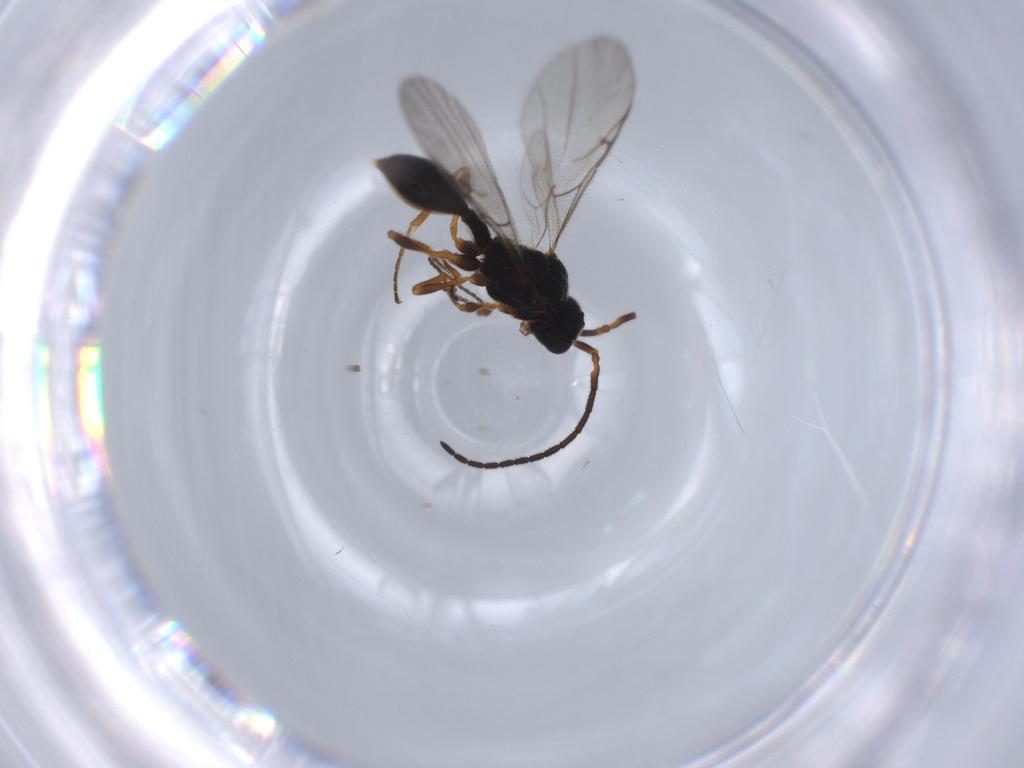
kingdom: Animalia
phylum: Arthropoda
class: Insecta
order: Hymenoptera
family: Diapriidae
